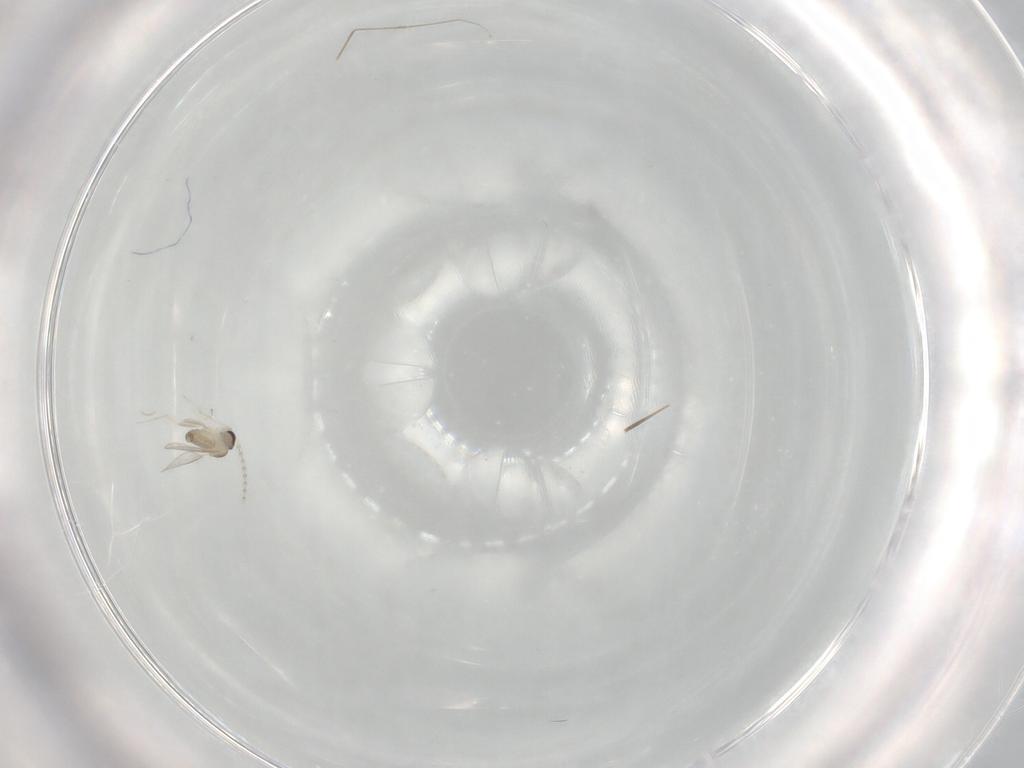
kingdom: Animalia
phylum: Arthropoda
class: Insecta
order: Diptera
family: Cecidomyiidae
